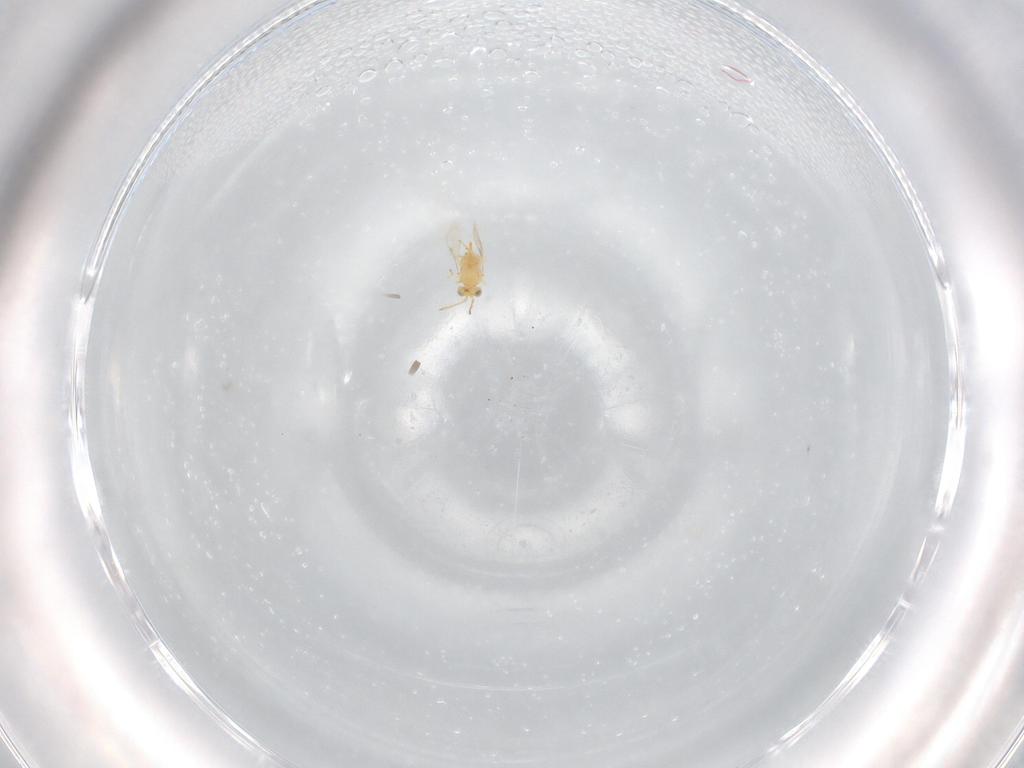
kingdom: Animalia
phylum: Arthropoda
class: Insecta
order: Hymenoptera
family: Aphelinidae
